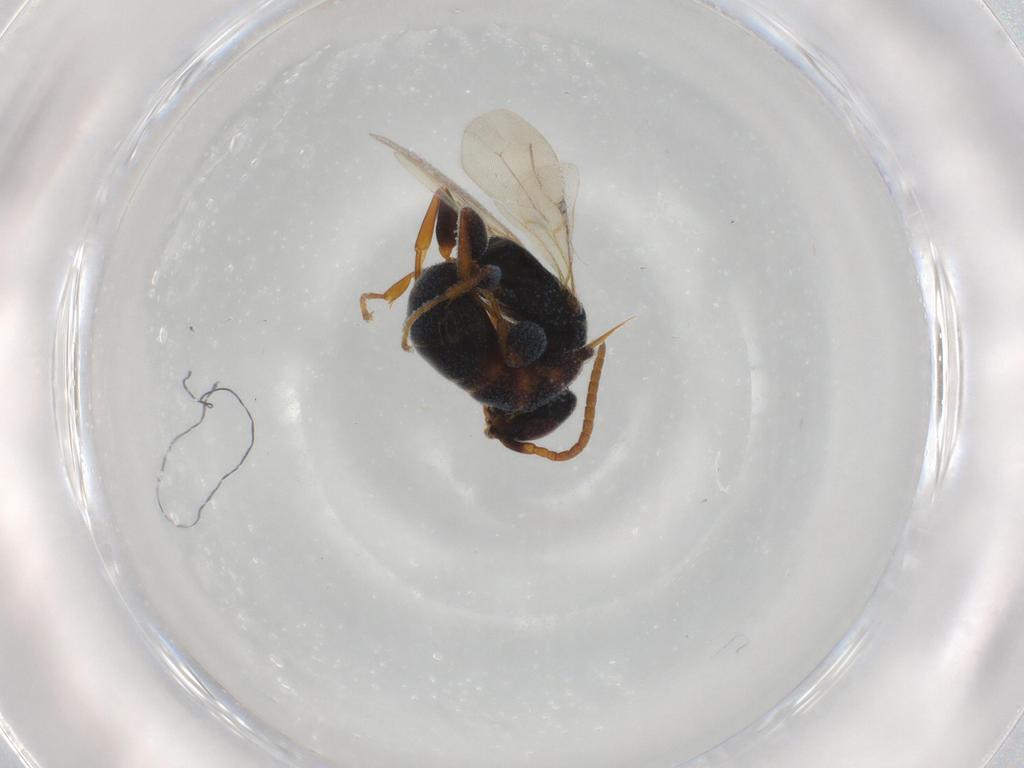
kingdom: Animalia
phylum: Arthropoda
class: Insecta
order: Hymenoptera
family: Bethylidae
